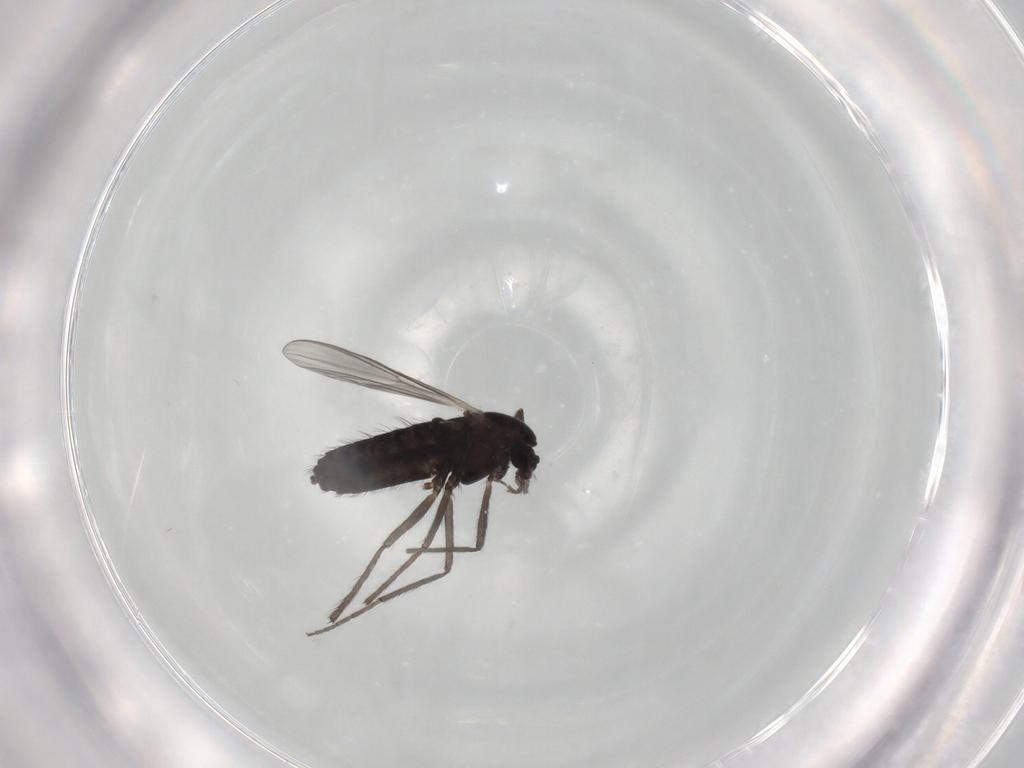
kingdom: Animalia
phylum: Arthropoda
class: Insecta
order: Diptera
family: Chironomidae
